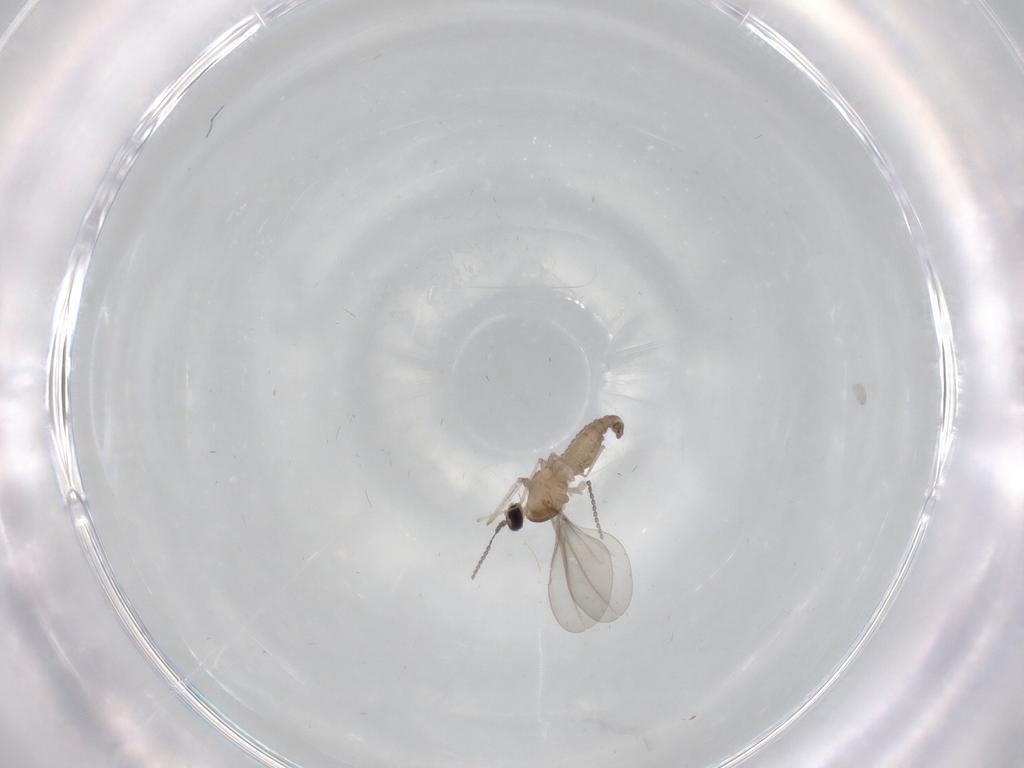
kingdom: Animalia
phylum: Arthropoda
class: Insecta
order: Diptera
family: Cecidomyiidae
